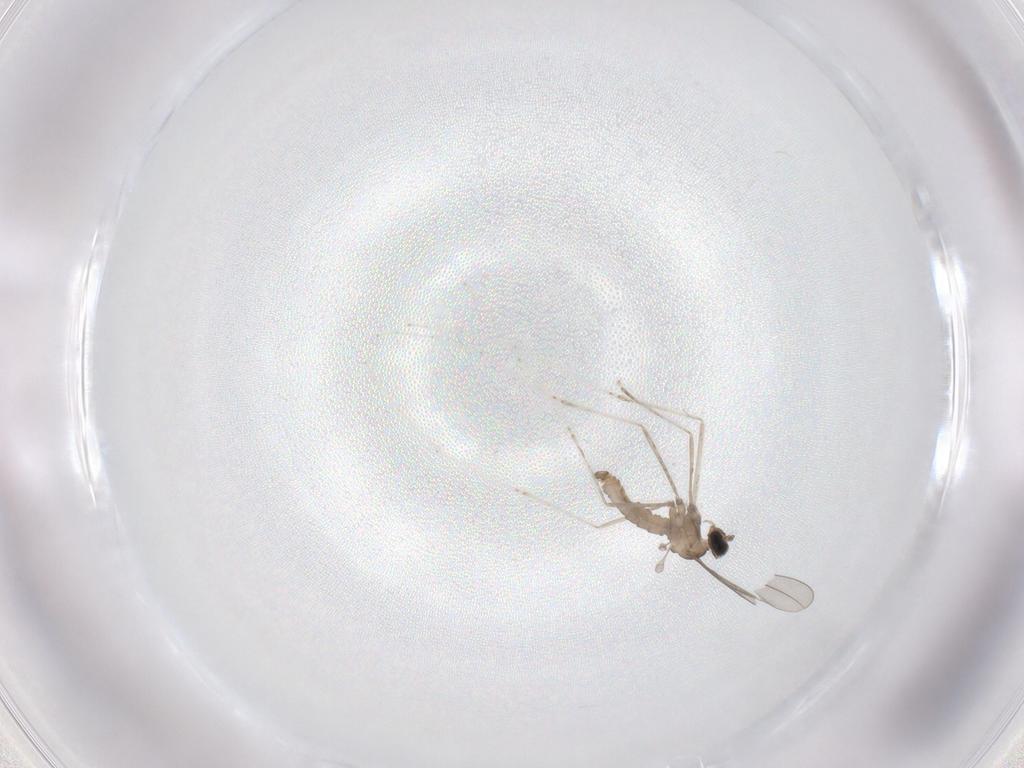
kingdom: Animalia
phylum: Arthropoda
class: Insecta
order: Diptera
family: Cecidomyiidae
